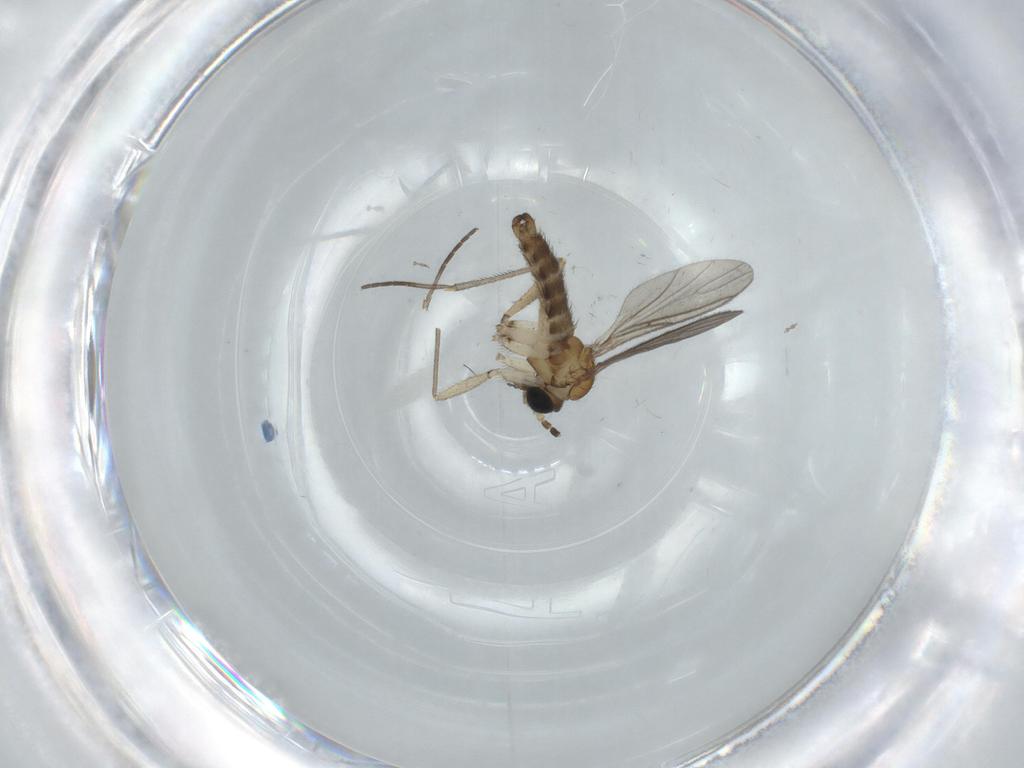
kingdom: Animalia
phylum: Arthropoda
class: Insecta
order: Diptera
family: Sciaridae
